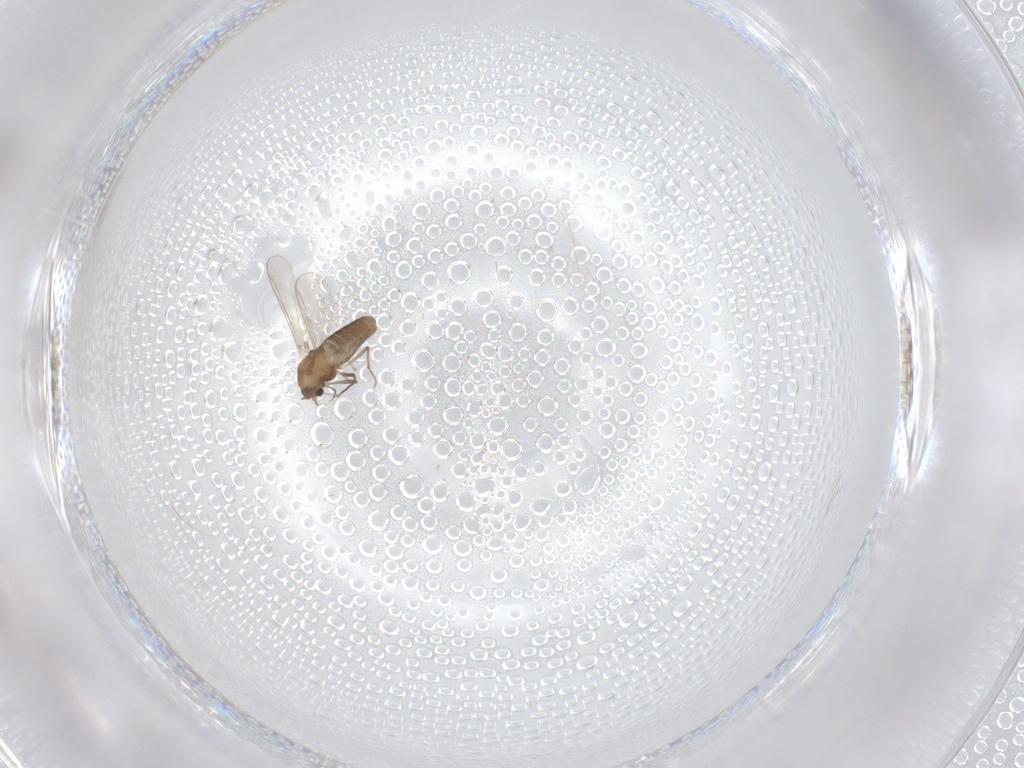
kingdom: Animalia
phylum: Arthropoda
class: Insecta
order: Diptera
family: Chironomidae
